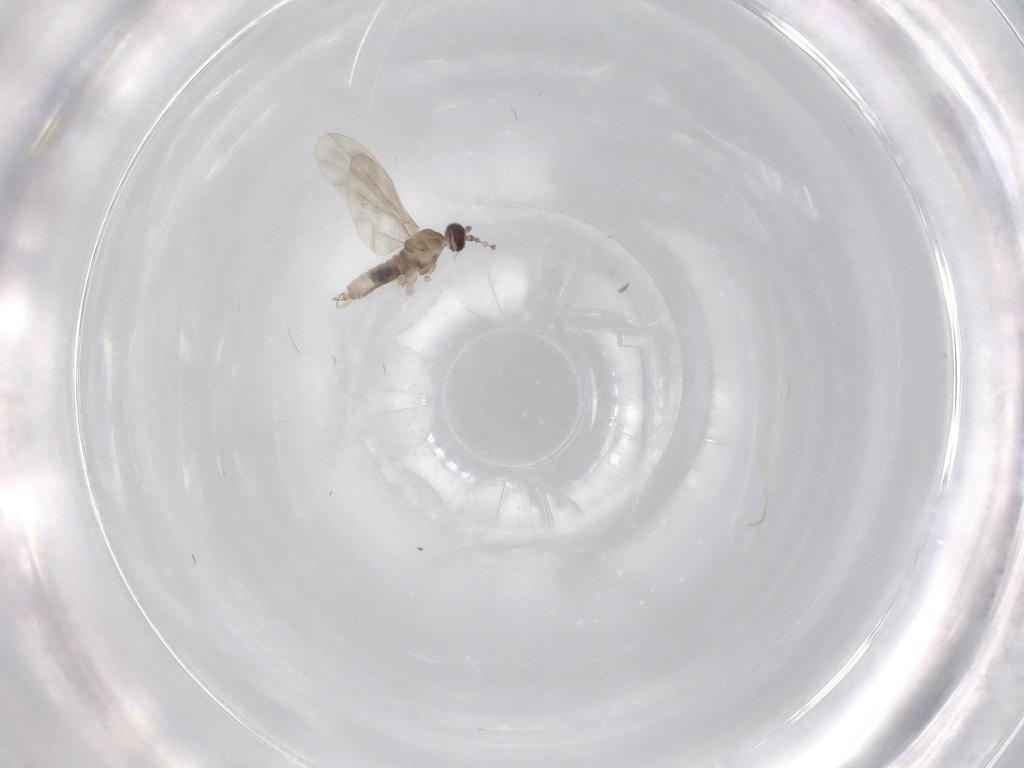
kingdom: Animalia
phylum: Arthropoda
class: Insecta
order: Diptera
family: Cecidomyiidae
